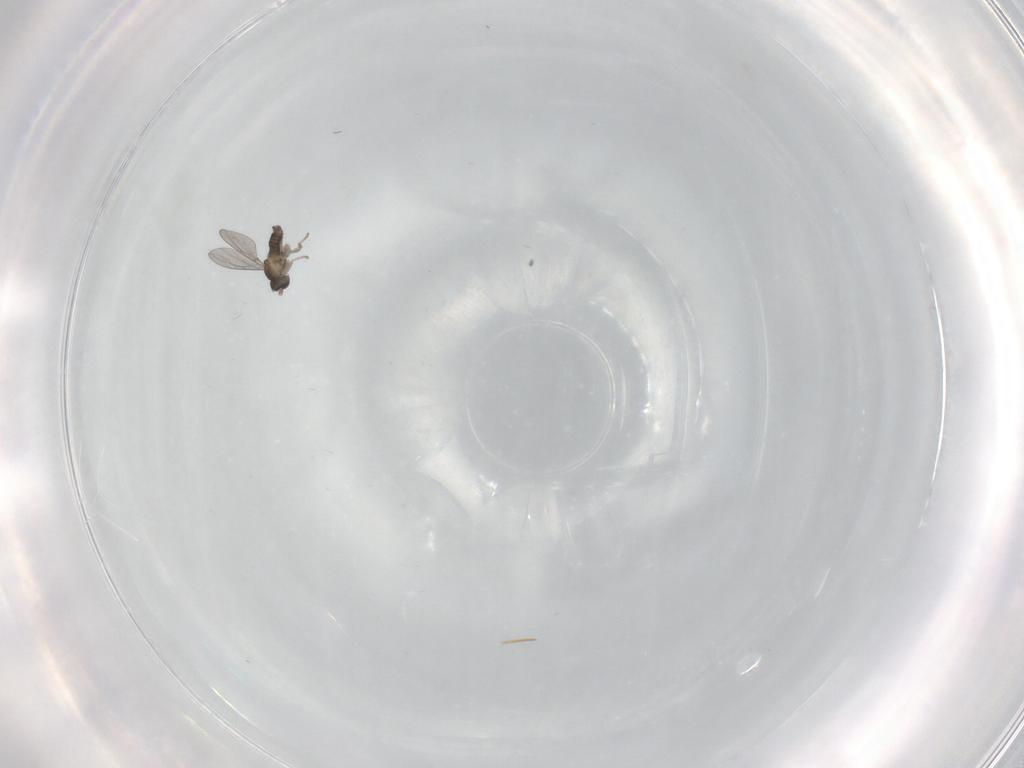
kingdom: Animalia
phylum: Arthropoda
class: Insecta
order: Diptera
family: Cecidomyiidae
